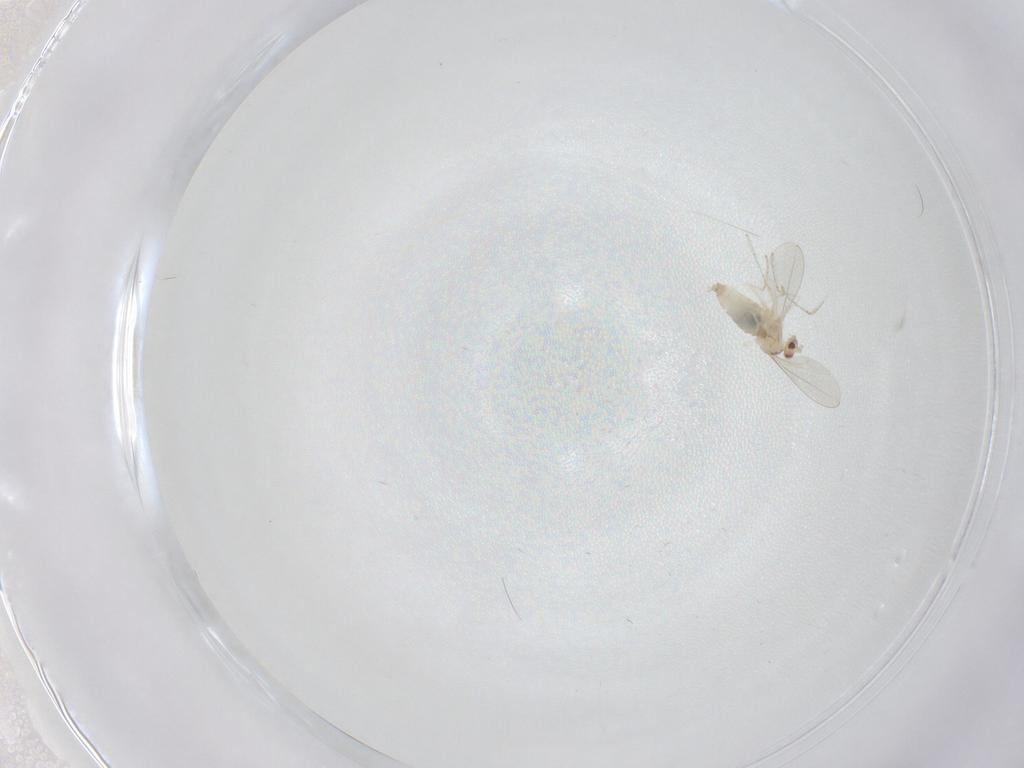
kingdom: Animalia
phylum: Arthropoda
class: Insecta
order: Diptera
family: Cecidomyiidae
